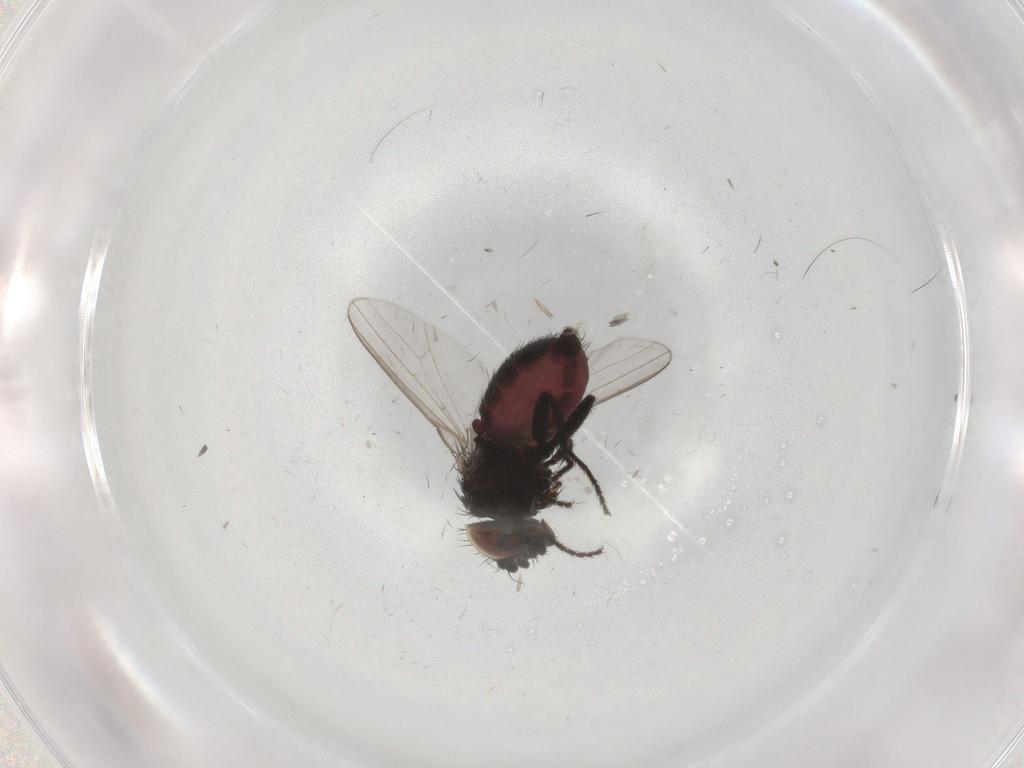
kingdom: Animalia
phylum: Arthropoda
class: Insecta
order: Diptera
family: Milichiidae
